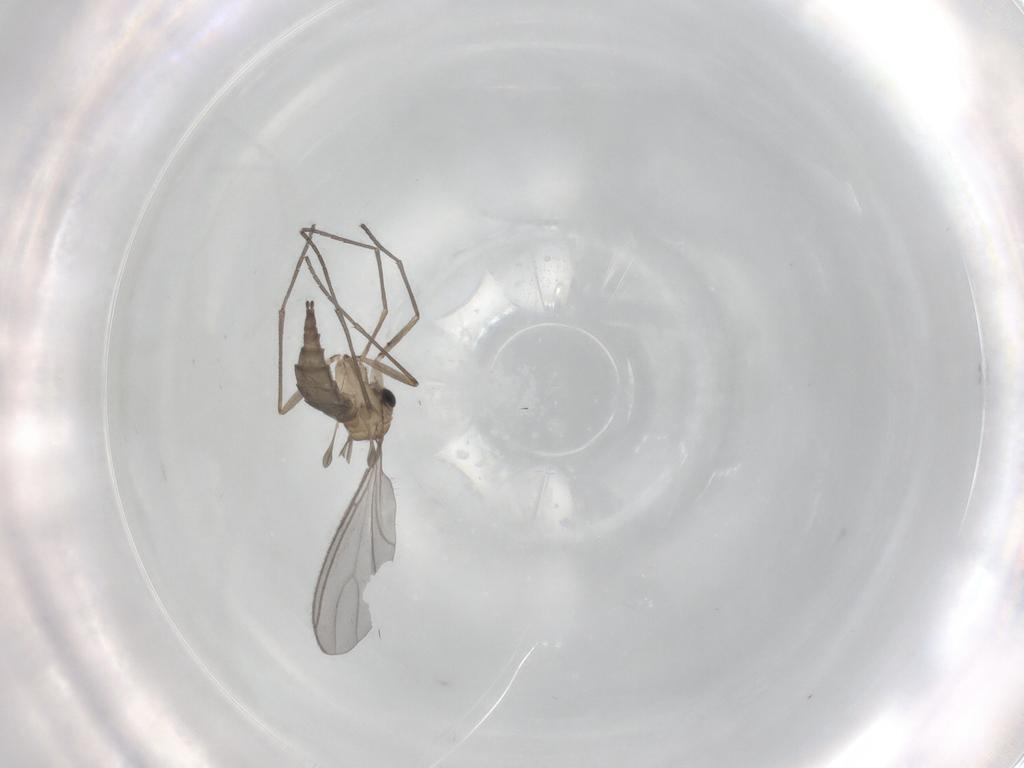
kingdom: Animalia
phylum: Arthropoda
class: Insecta
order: Diptera
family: Sciaridae
